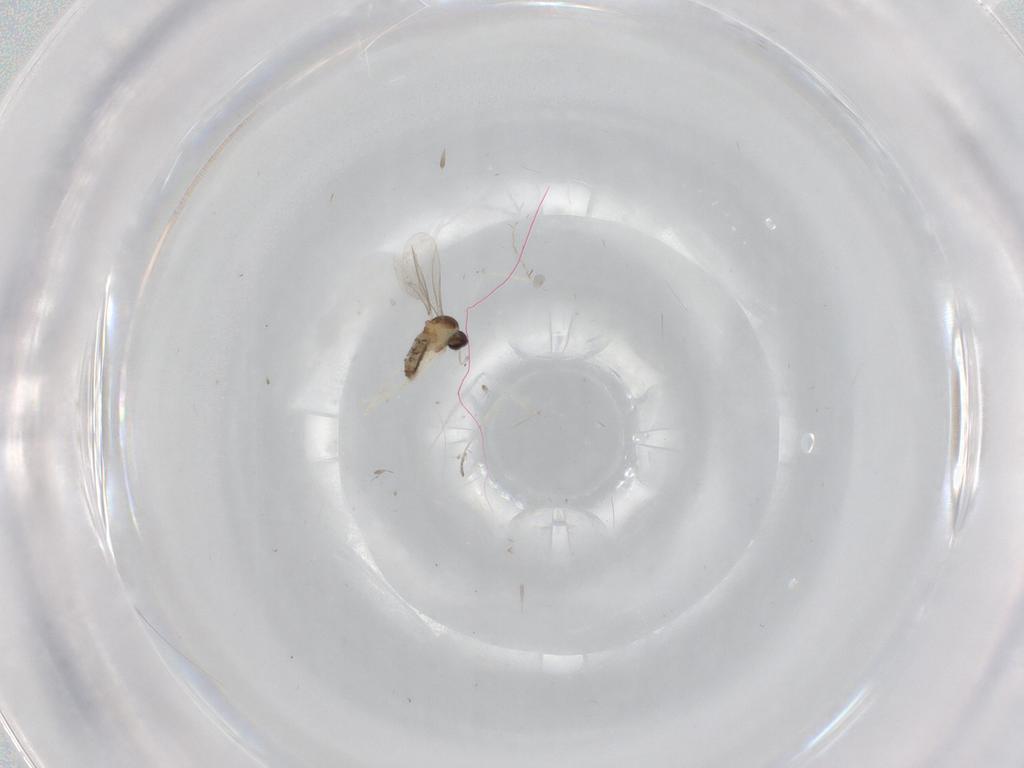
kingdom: Animalia
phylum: Arthropoda
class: Insecta
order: Diptera
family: Cecidomyiidae
